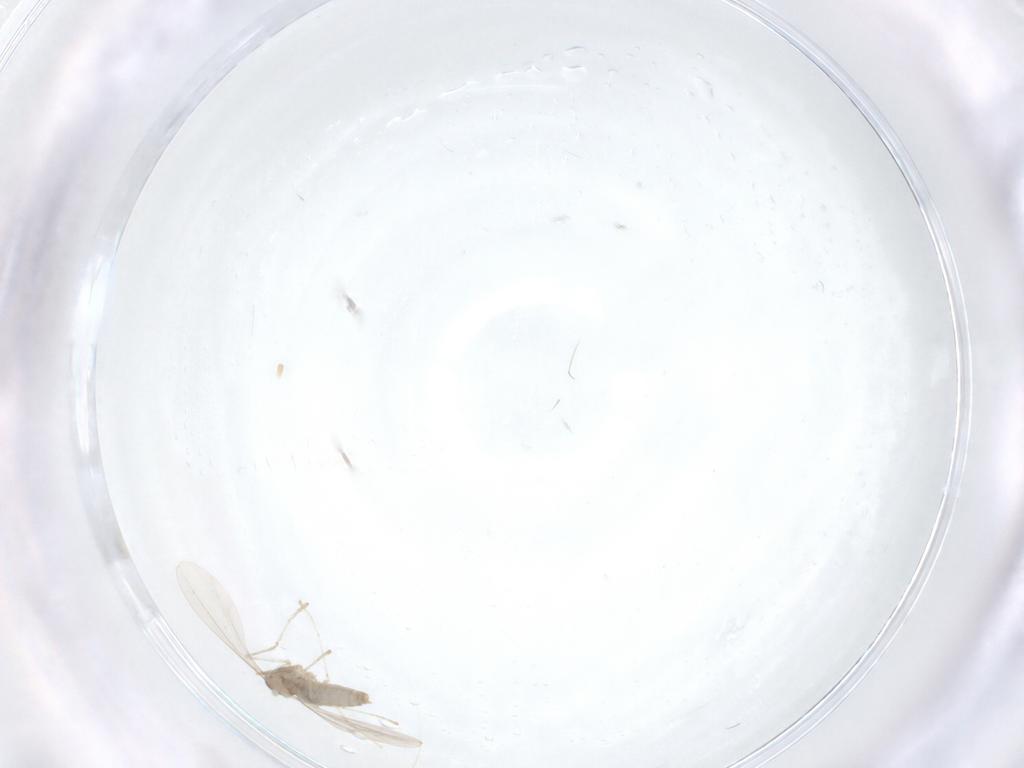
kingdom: Animalia
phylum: Arthropoda
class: Insecta
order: Diptera
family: Cecidomyiidae
